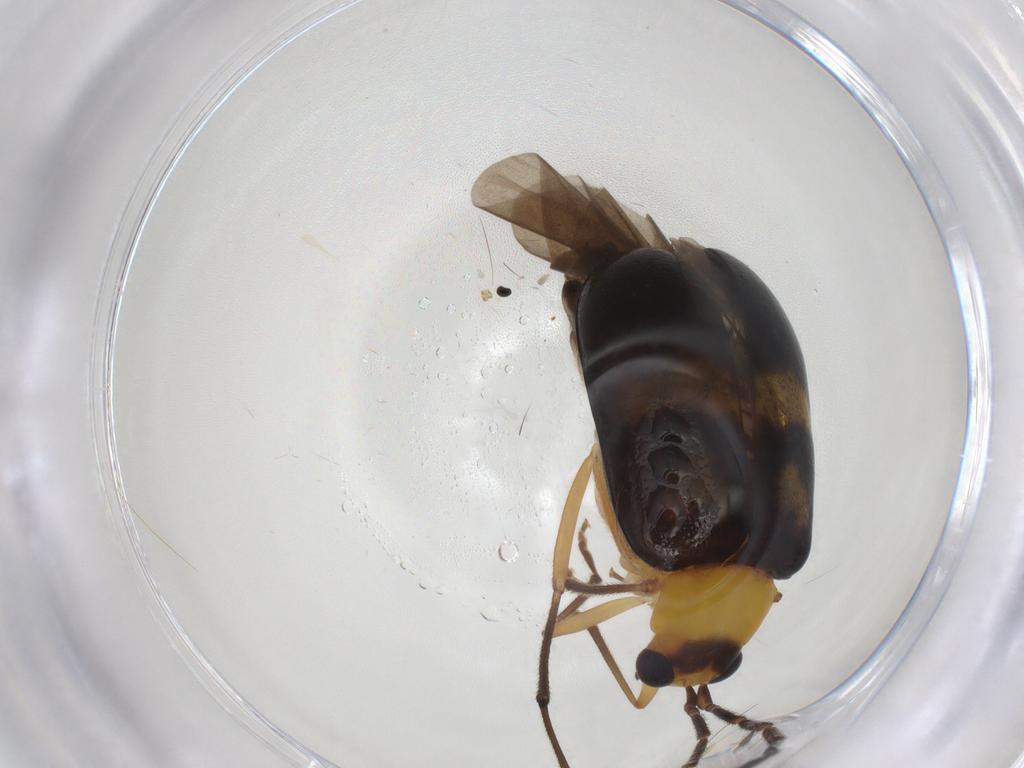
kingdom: Animalia
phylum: Arthropoda
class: Insecta
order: Coleoptera
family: Chrysomelidae
